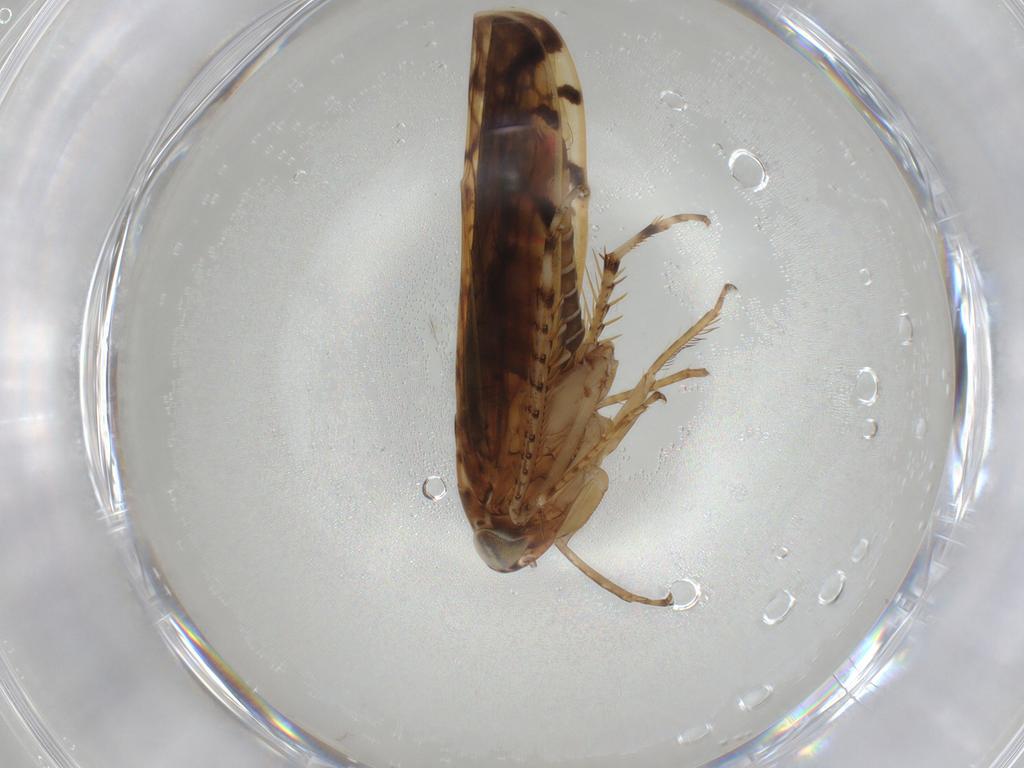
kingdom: Animalia
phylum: Arthropoda
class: Insecta
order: Hemiptera
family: Cicadellidae
